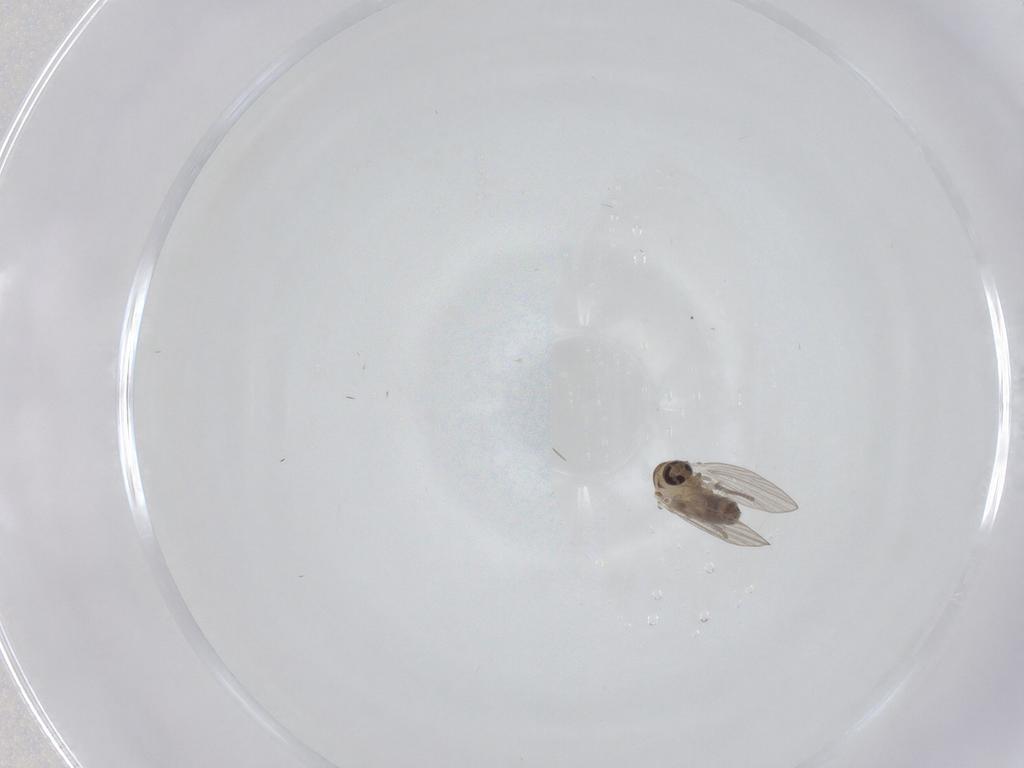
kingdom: Animalia
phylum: Arthropoda
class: Insecta
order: Diptera
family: Psychodidae
